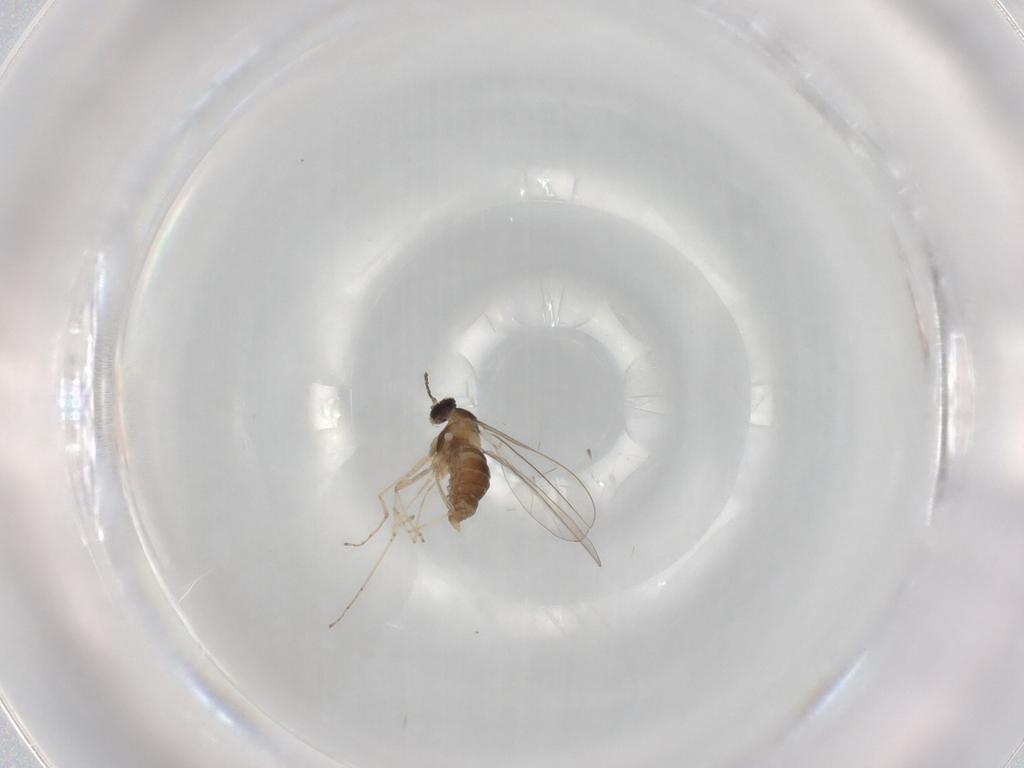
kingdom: Animalia
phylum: Arthropoda
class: Insecta
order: Diptera
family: Cecidomyiidae
